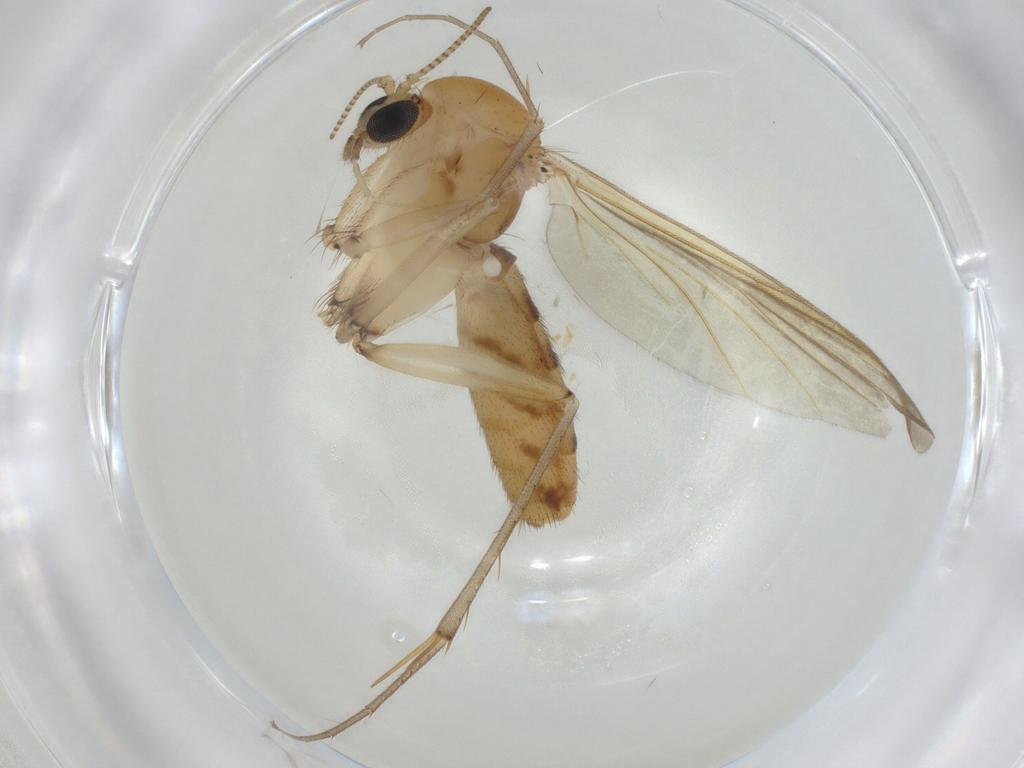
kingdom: Animalia
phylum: Arthropoda
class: Insecta
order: Diptera
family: Mycetophilidae
